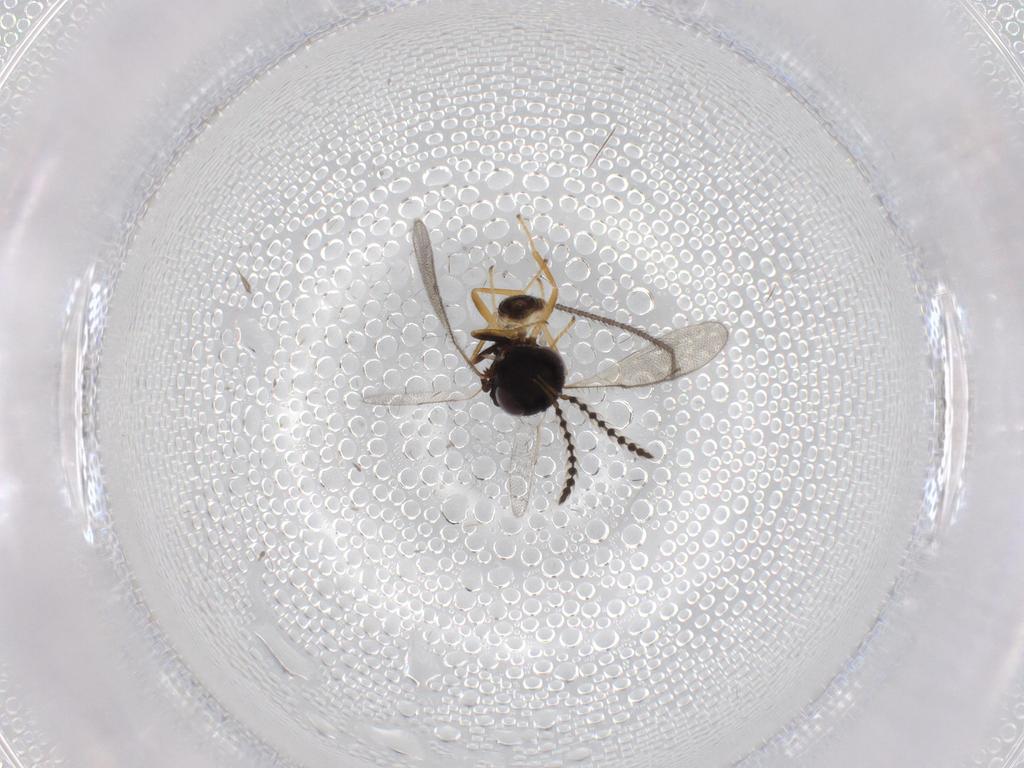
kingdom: Animalia
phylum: Arthropoda
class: Insecta
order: Hymenoptera
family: Pteromalidae
